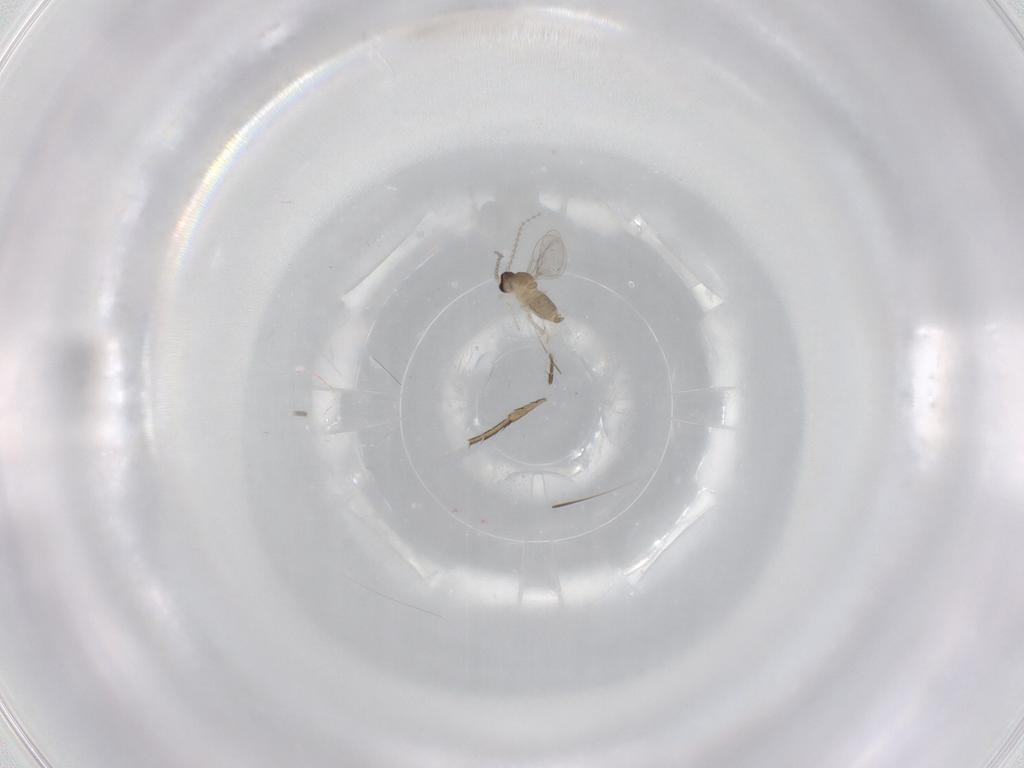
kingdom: Animalia
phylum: Arthropoda
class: Insecta
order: Diptera
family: Cecidomyiidae
